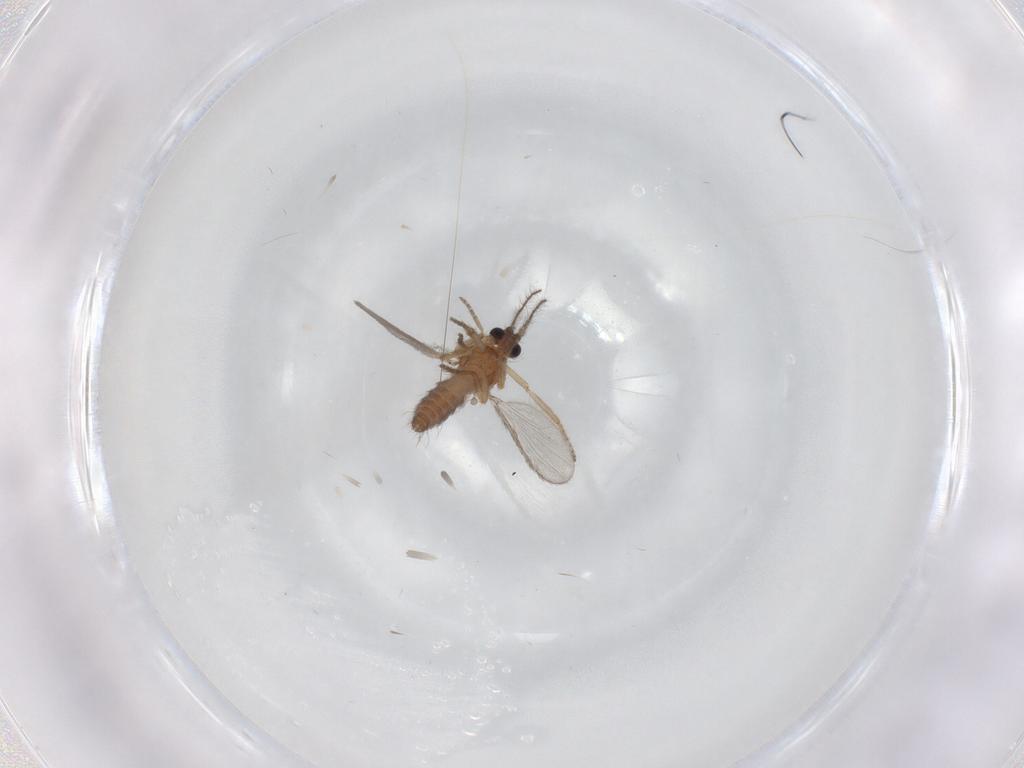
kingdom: Animalia
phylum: Arthropoda
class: Insecta
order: Diptera
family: Ceratopogonidae
